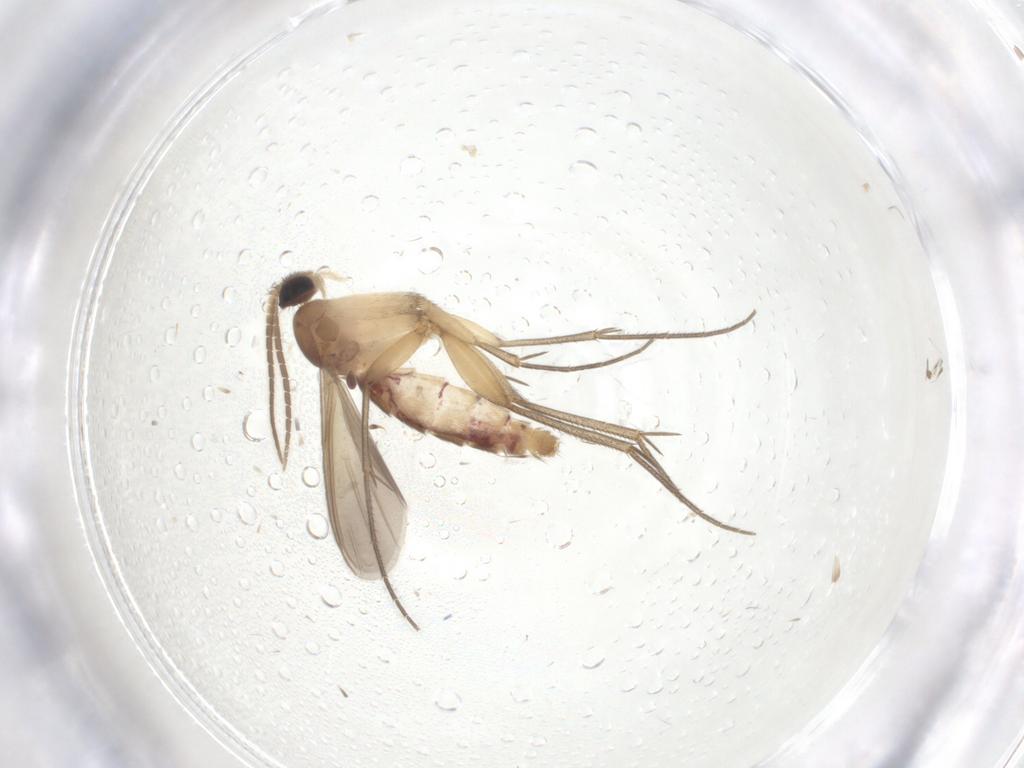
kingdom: Animalia
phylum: Arthropoda
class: Insecta
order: Diptera
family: Mycetophilidae
